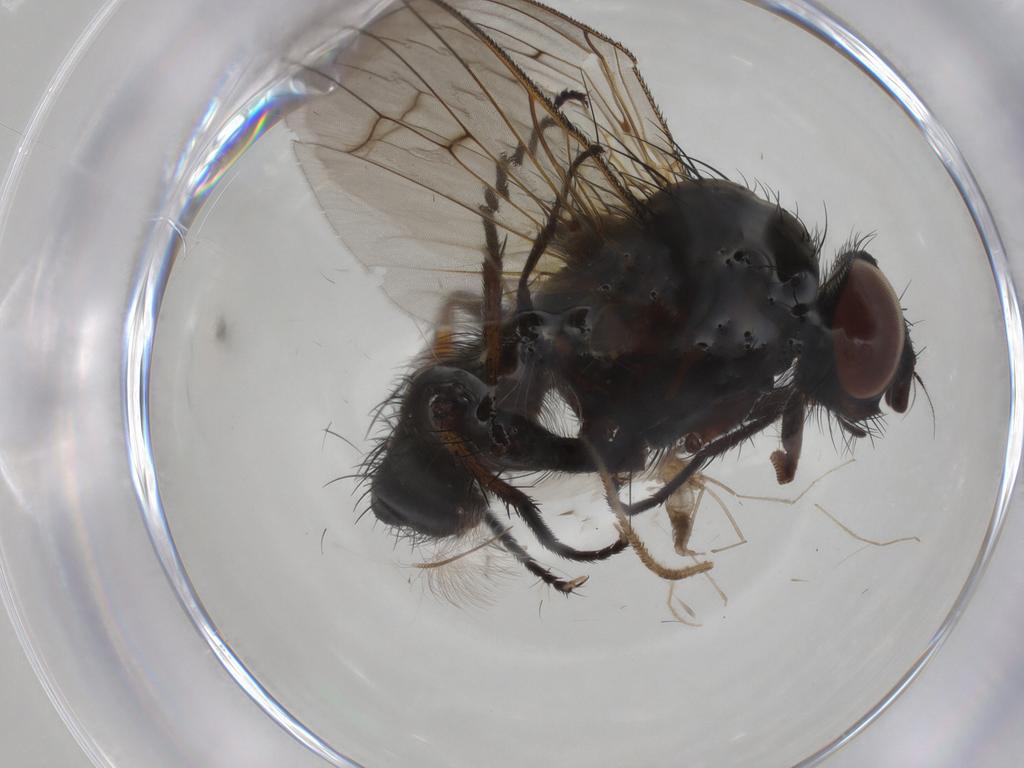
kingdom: Animalia
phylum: Arthropoda
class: Insecta
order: Diptera
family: Anthomyiidae
